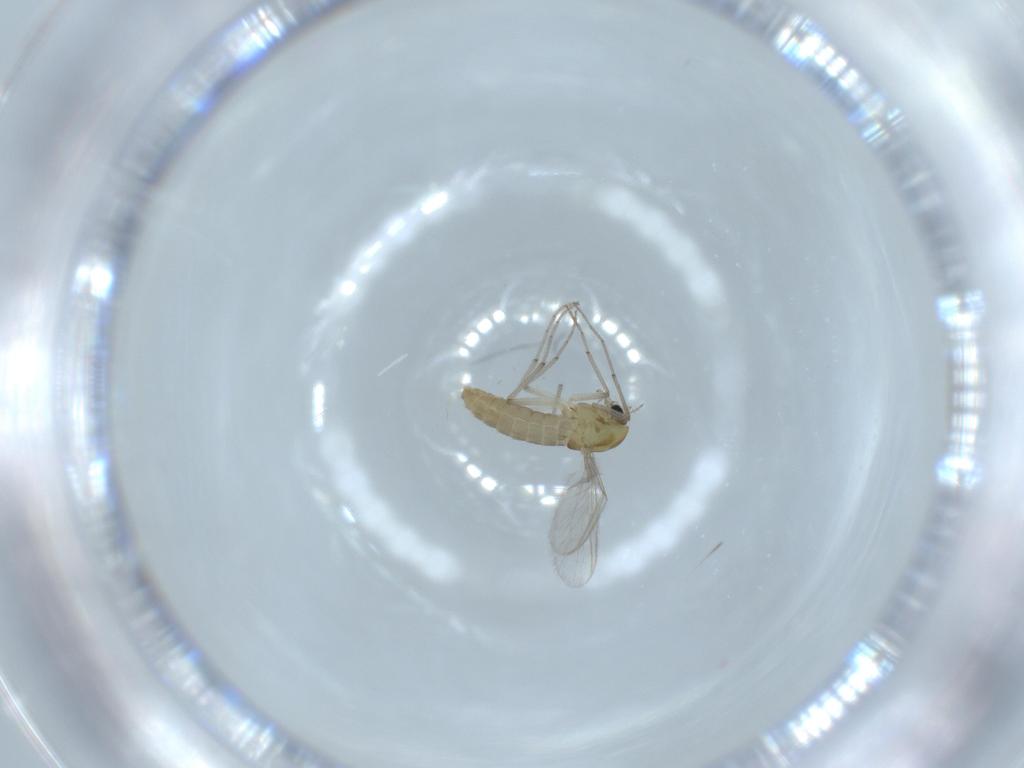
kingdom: Animalia
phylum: Arthropoda
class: Insecta
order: Diptera
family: Chironomidae
